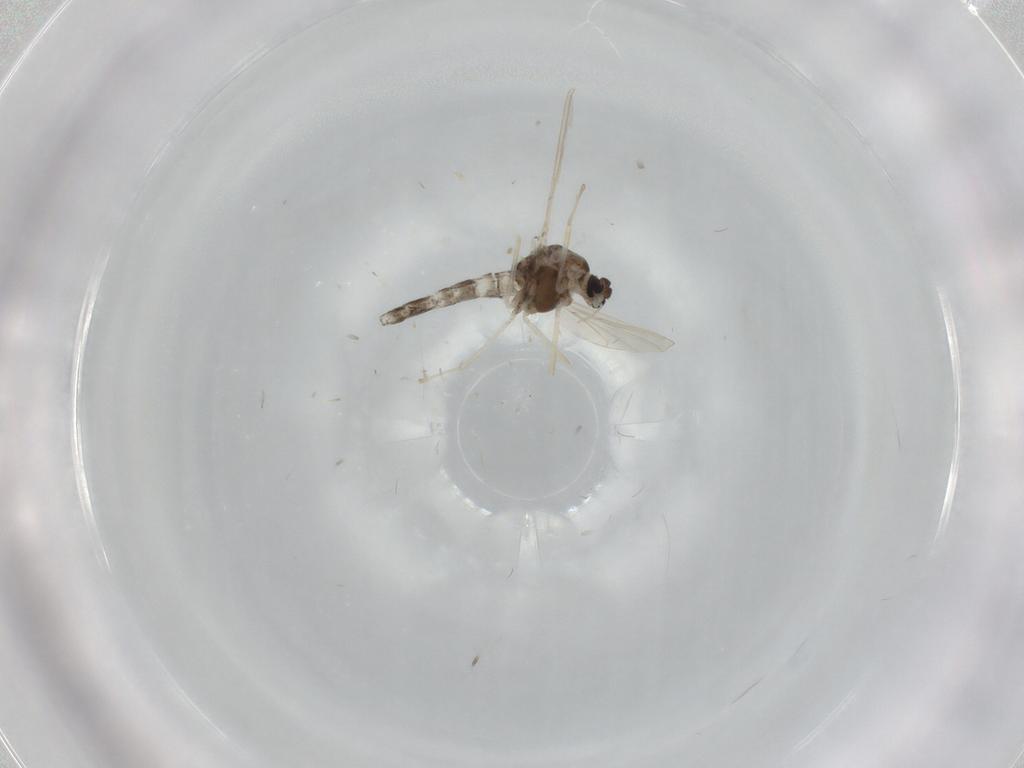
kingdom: Animalia
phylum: Arthropoda
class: Insecta
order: Diptera
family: Chironomidae
